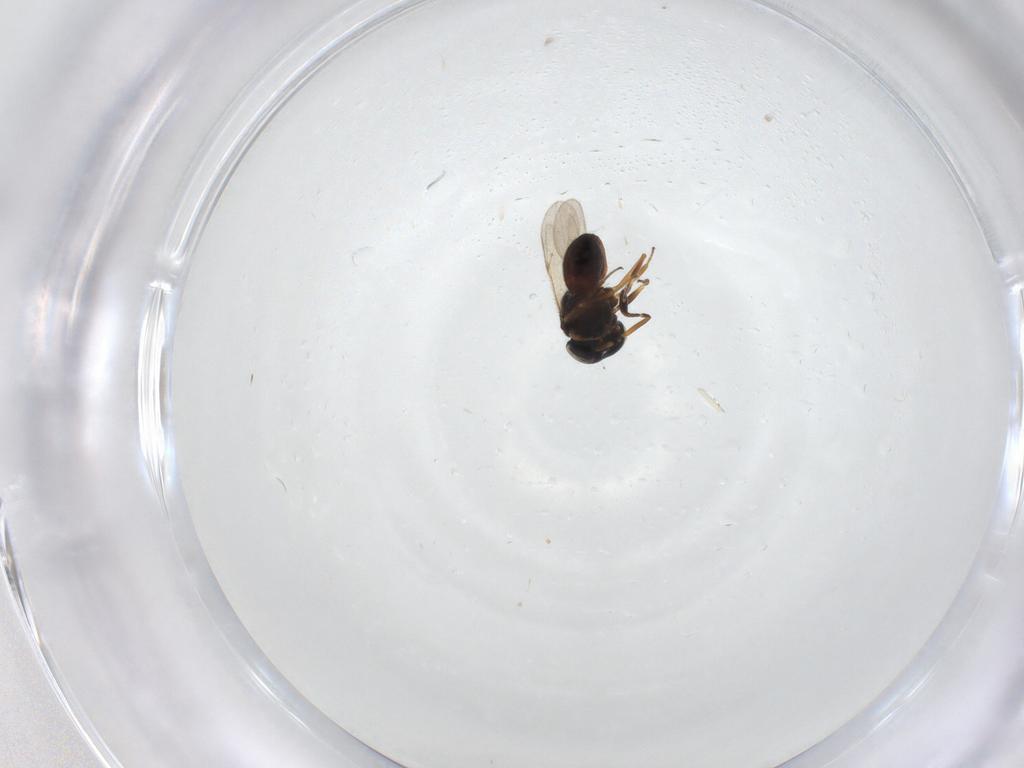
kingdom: Animalia
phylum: Arthropoda
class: Insecta
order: Hymenoptera
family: Scelionidae
